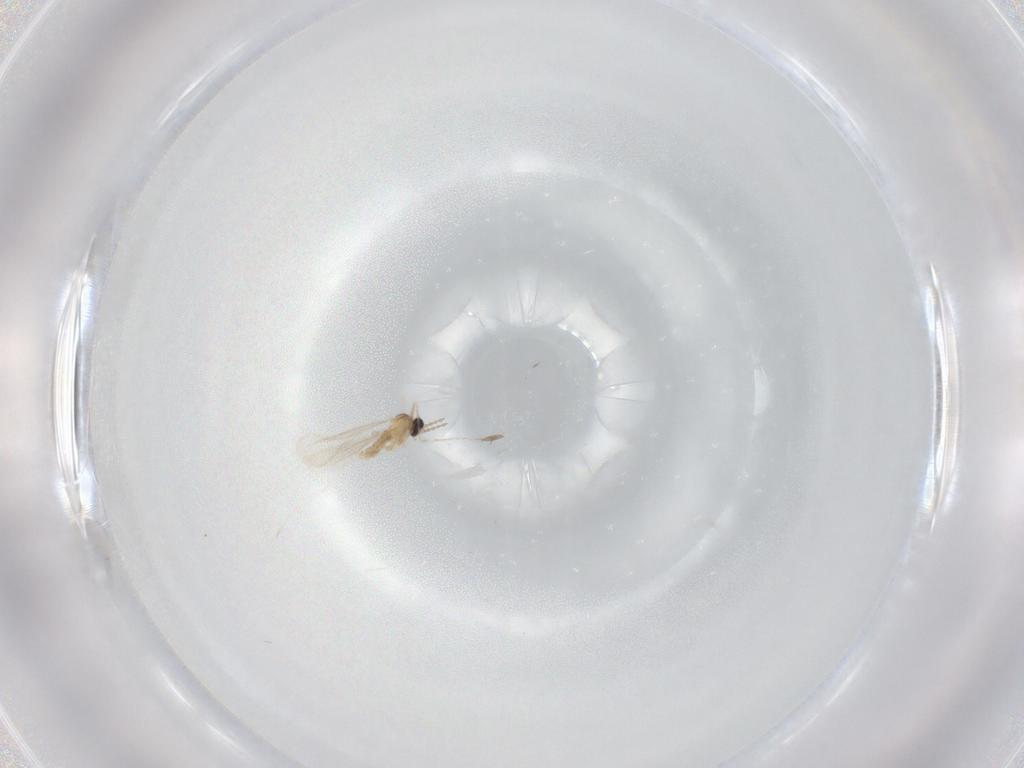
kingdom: Animalia
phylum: Arthropoda
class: Insecta
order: Diptera
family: Cecidomyiidae
